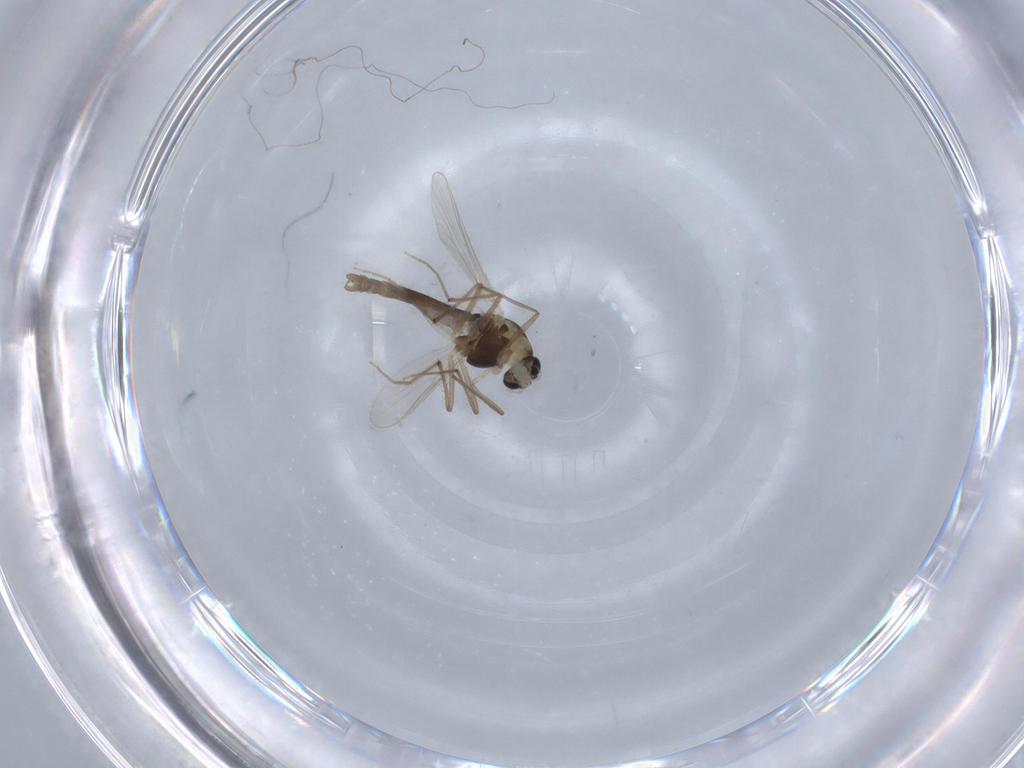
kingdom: Animalia
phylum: Arthropoda
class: Insecta
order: Diptera
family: Chironomidae
